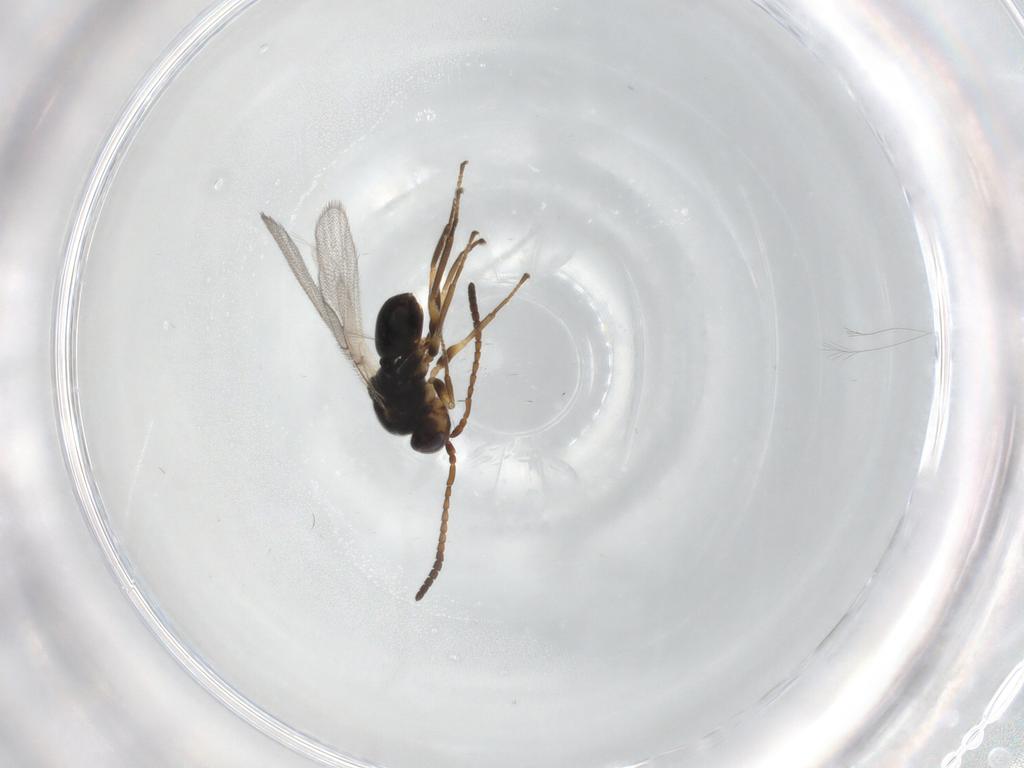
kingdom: Animalia
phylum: Arthropoda
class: Insecta
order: Hymenoptera
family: Cynipidae
